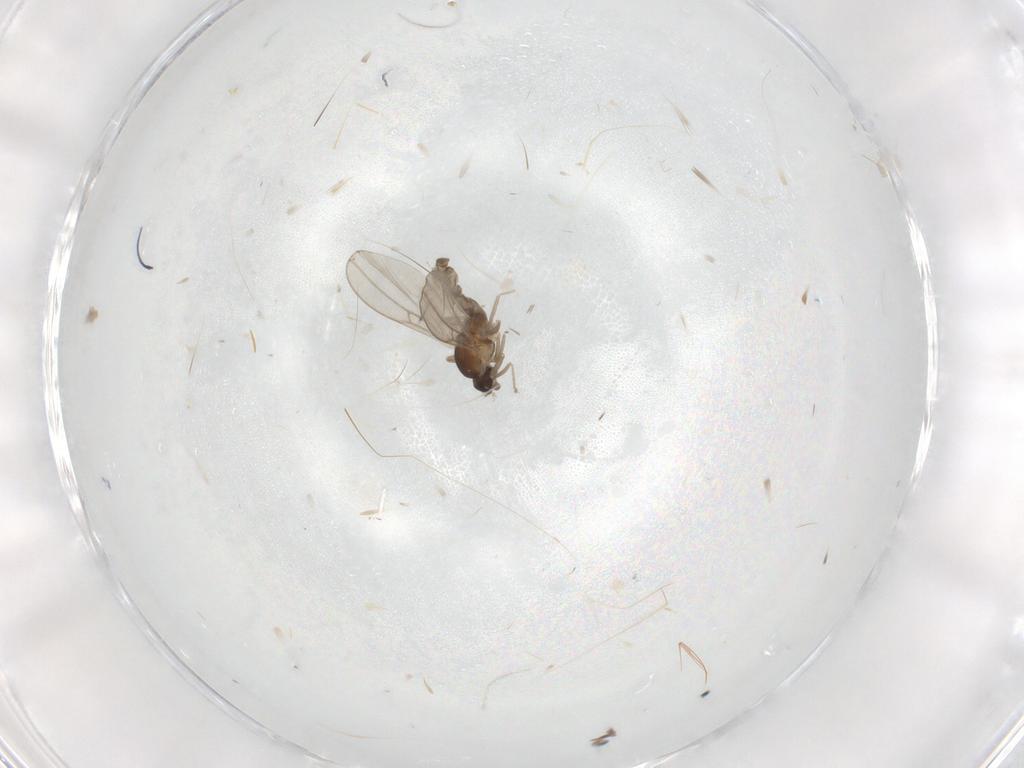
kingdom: Animalia
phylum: Arthropoda
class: Insecta
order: Diptera
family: Cecidomyiidae
